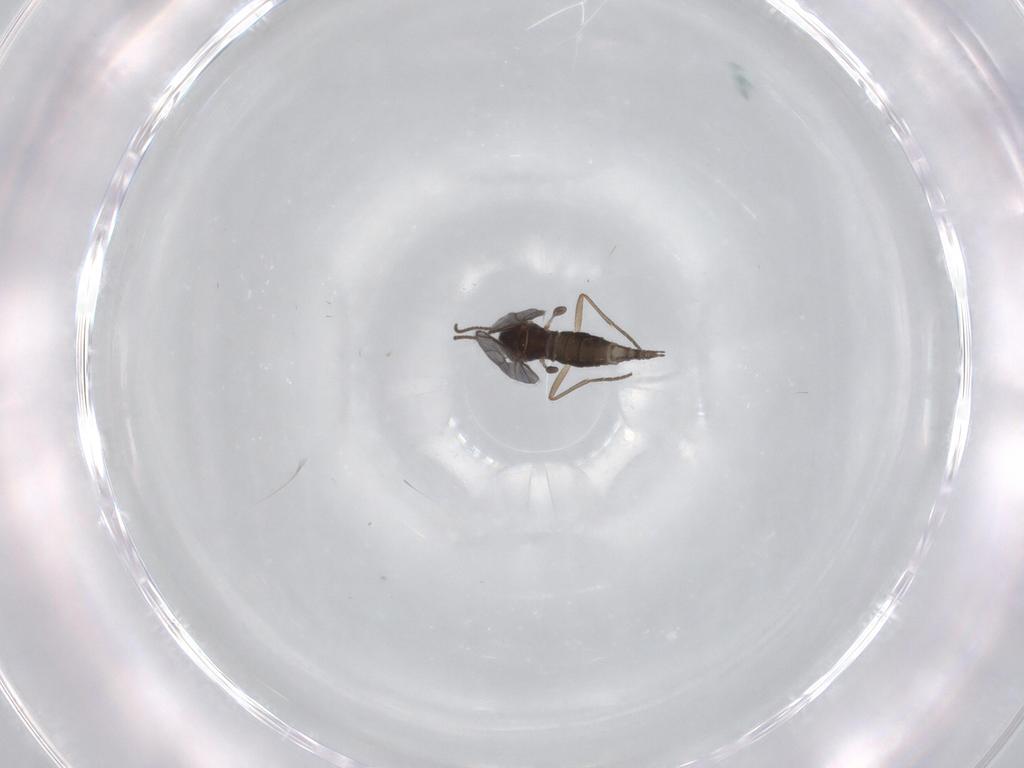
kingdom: Animalia
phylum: Arthropoda
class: Insecta
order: Diptera
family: Sciaridae
